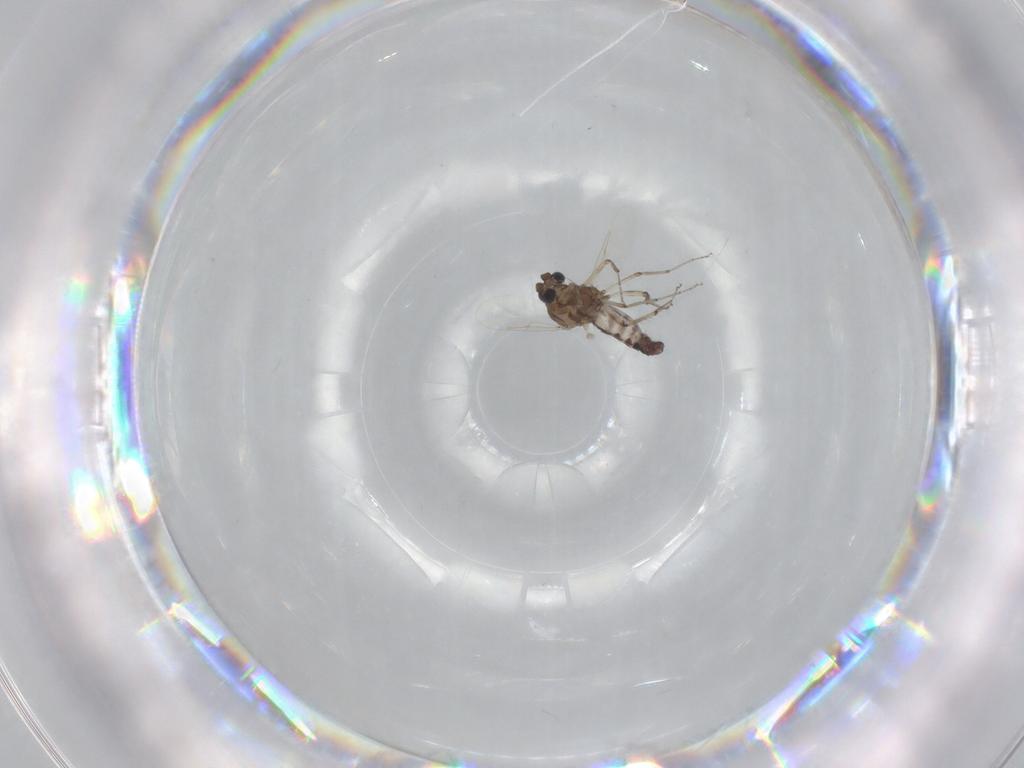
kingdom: Animalia
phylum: Arthropoda
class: Insecta
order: Diptera
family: Ceratopogonidae
